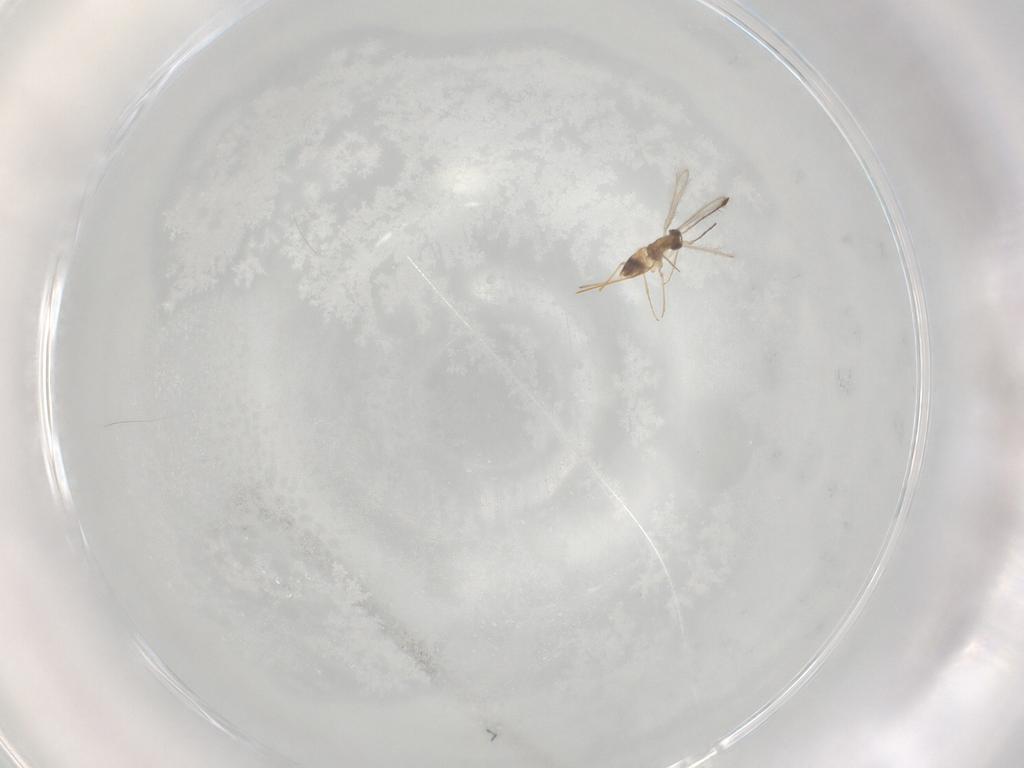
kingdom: Animalia
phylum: Arthropoda
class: Insecta
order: Hymenoptera
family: Mymaridae
